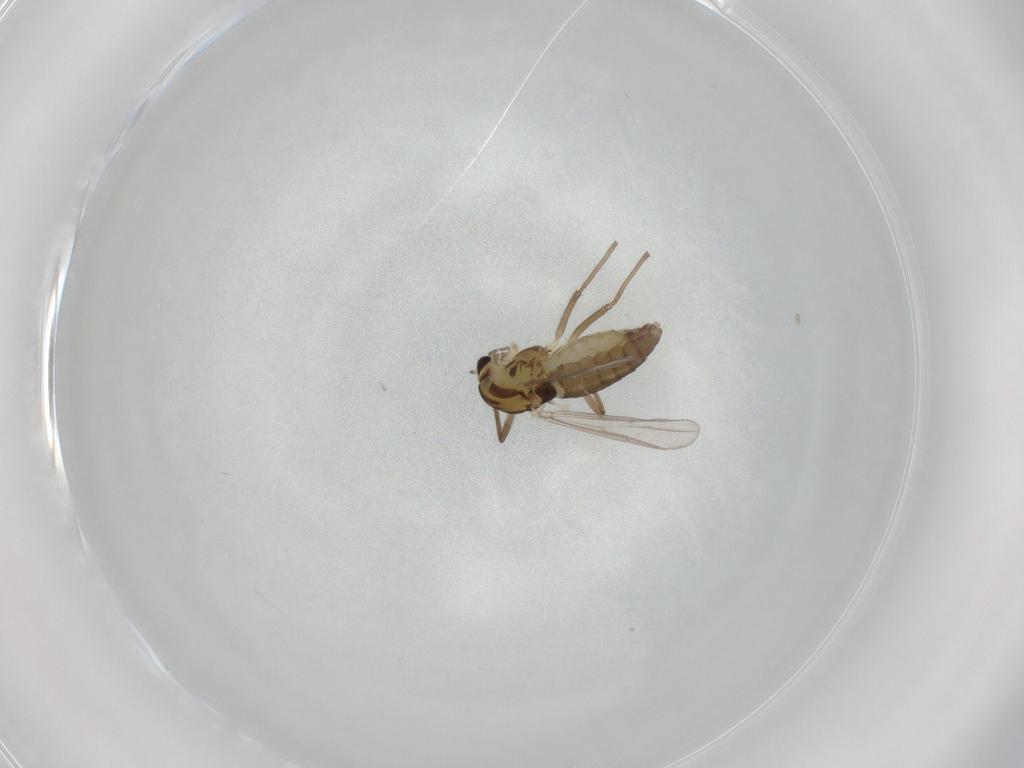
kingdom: Animalia
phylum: Arthropoda
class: Insecta
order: Diptera
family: Chironomidae
